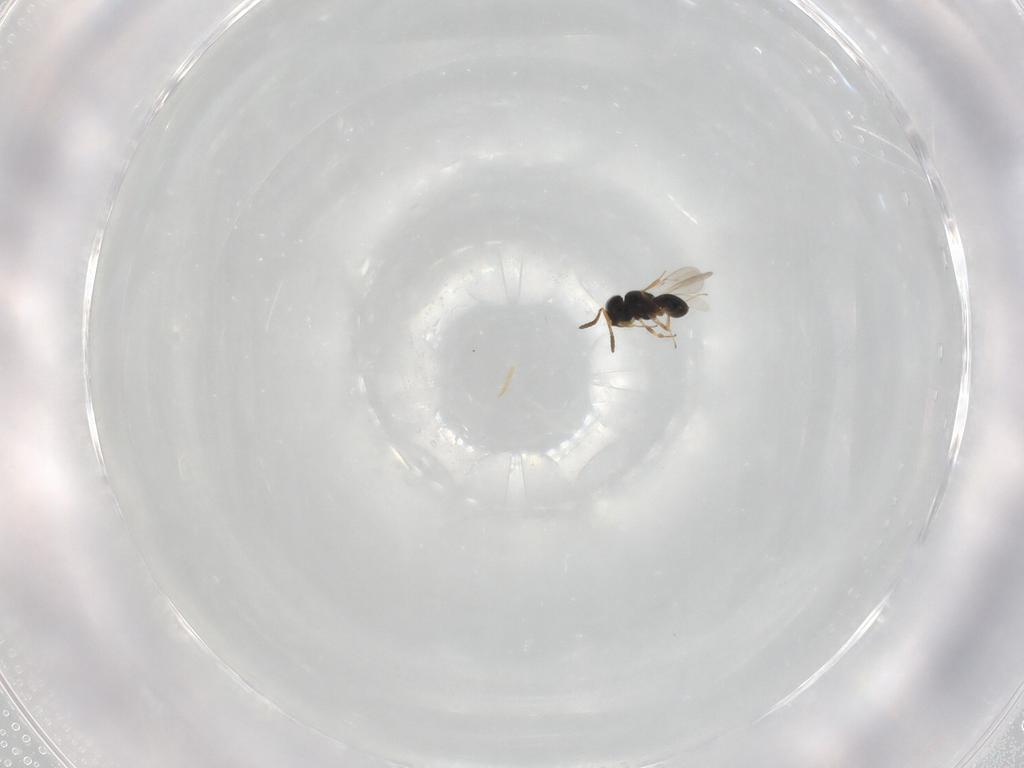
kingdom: Animalia
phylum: Arthropoda
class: Insecta
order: Hymenoptera
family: Scelionidae
